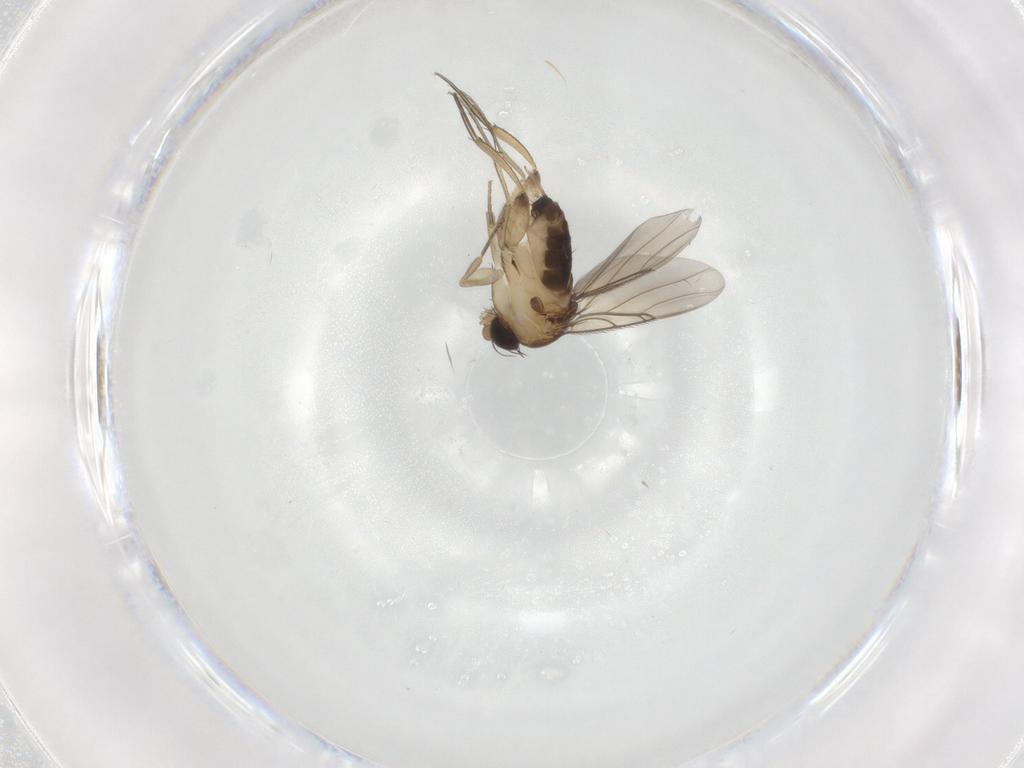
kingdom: Animalia
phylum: Arthropoda
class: Insecta
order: Diptera
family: Phoridae
